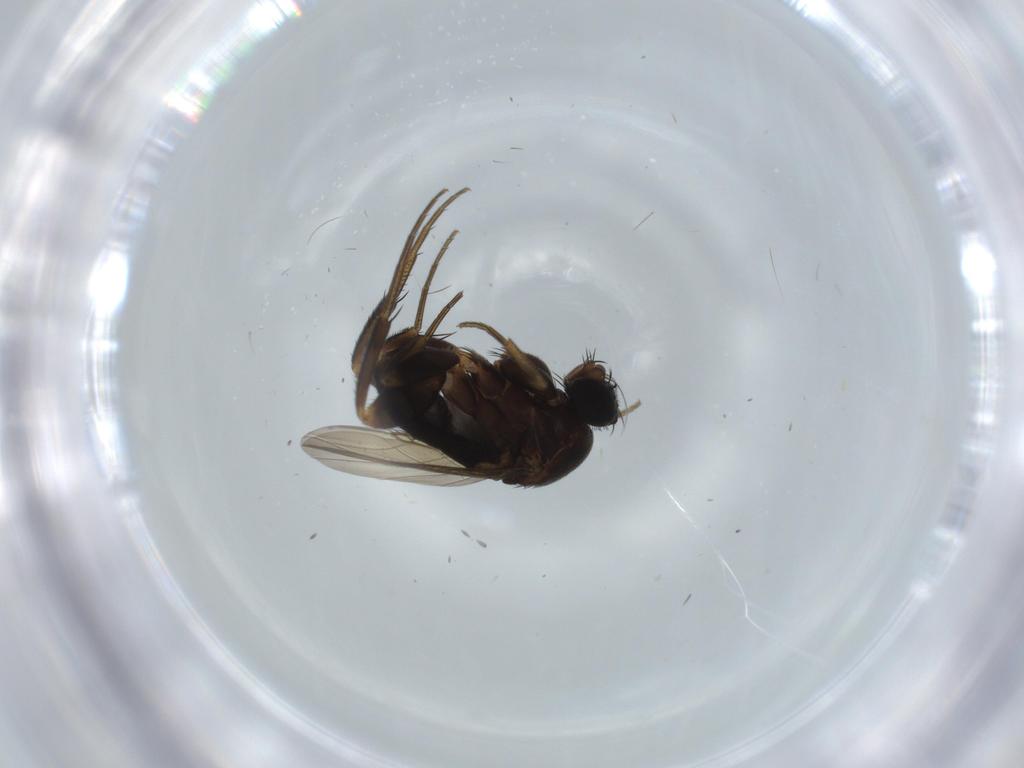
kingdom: Animalia
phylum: Arthropoda
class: Insecta
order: Diptera
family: Phoridae
